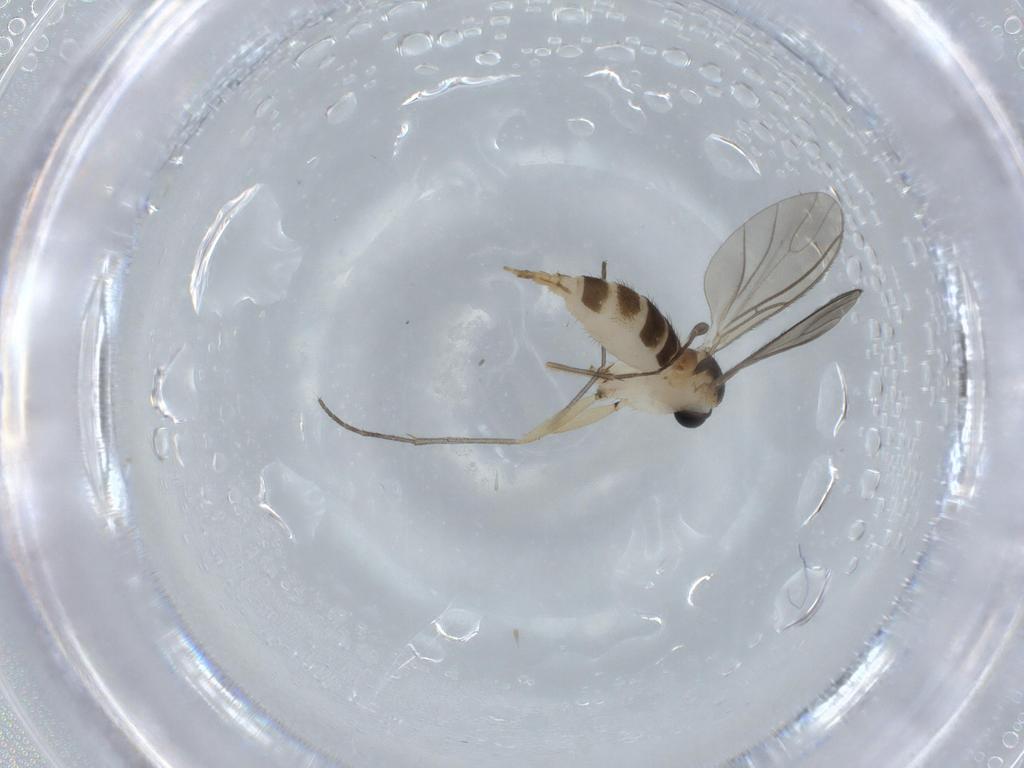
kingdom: Animalia
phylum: Arthropoda
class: Insecta
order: Diptera
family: Sciaridae
